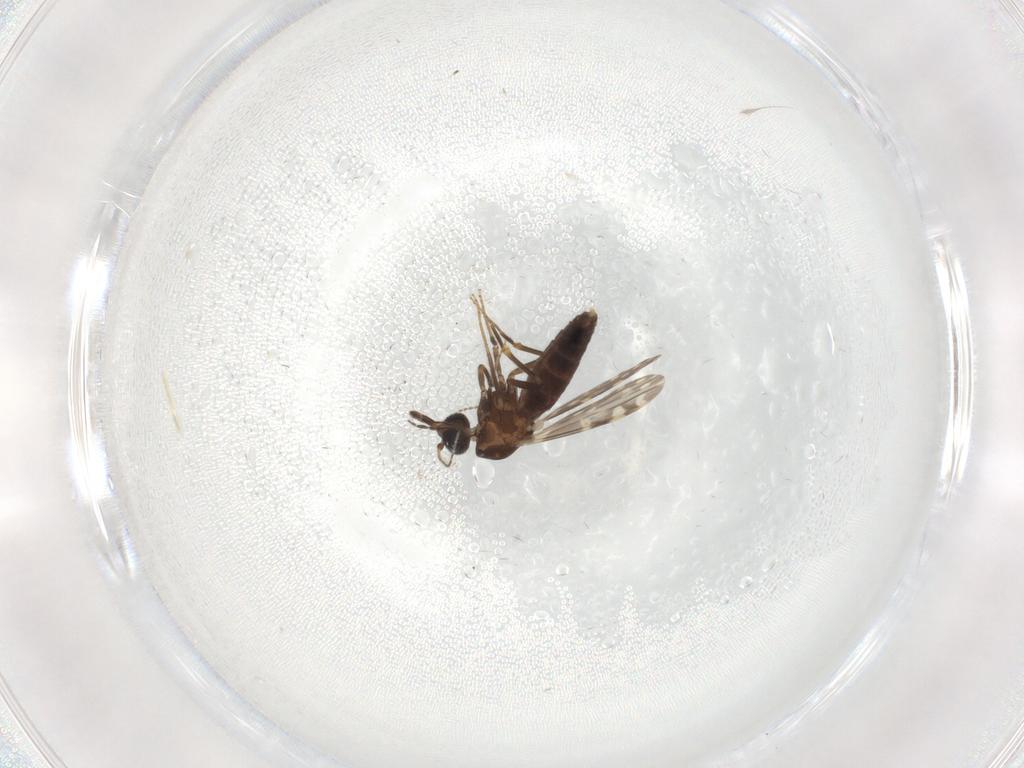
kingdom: Animalia
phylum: Arthropoda
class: Insecta
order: Diptera
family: Ceratopogonidae
